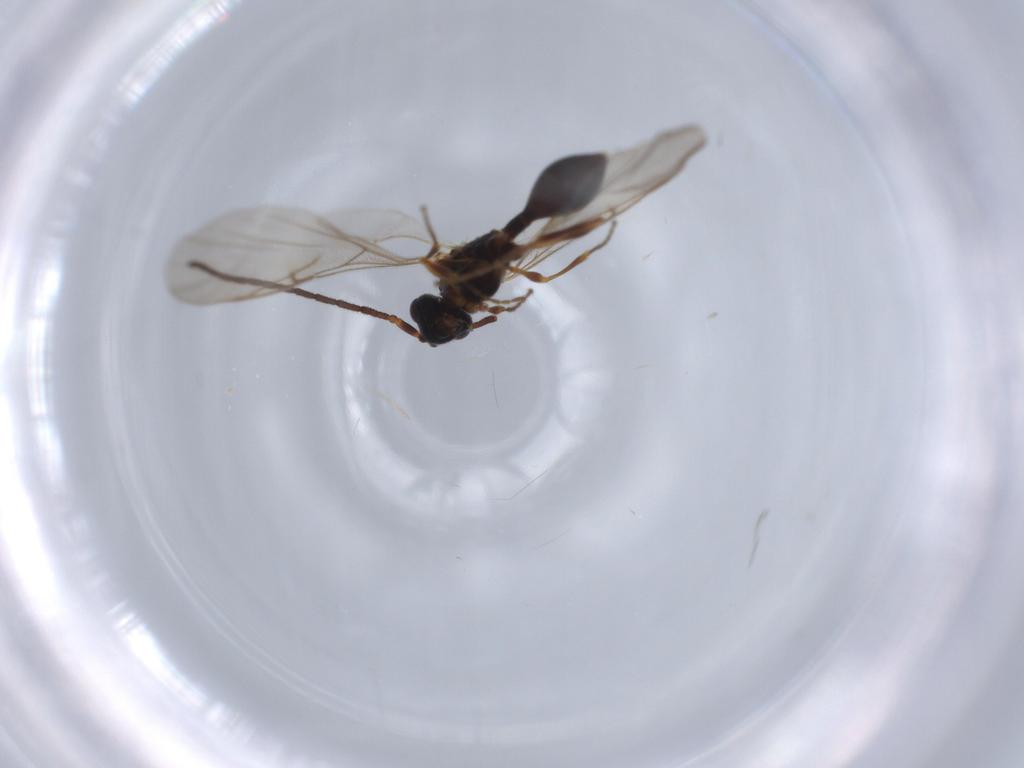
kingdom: Animalia
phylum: Arthropoda
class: Insecta
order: Hymenoptera
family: Ichneumonidae
